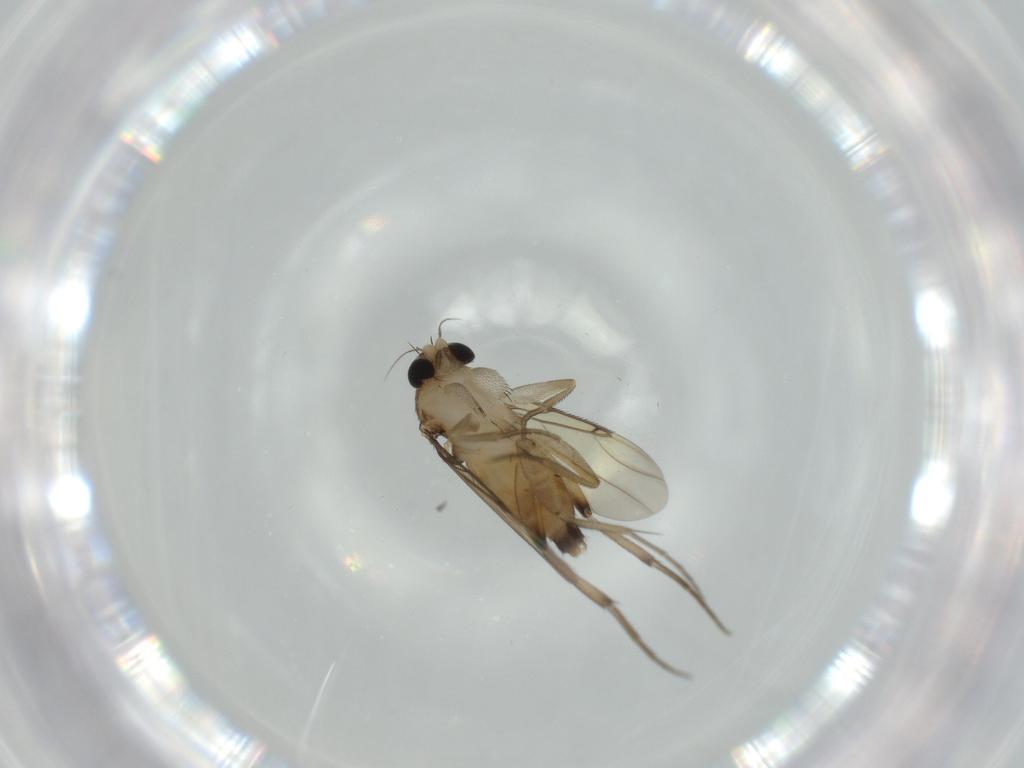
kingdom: Animalia
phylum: Arthropoda
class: Insecta
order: Diptera
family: Phoridae
